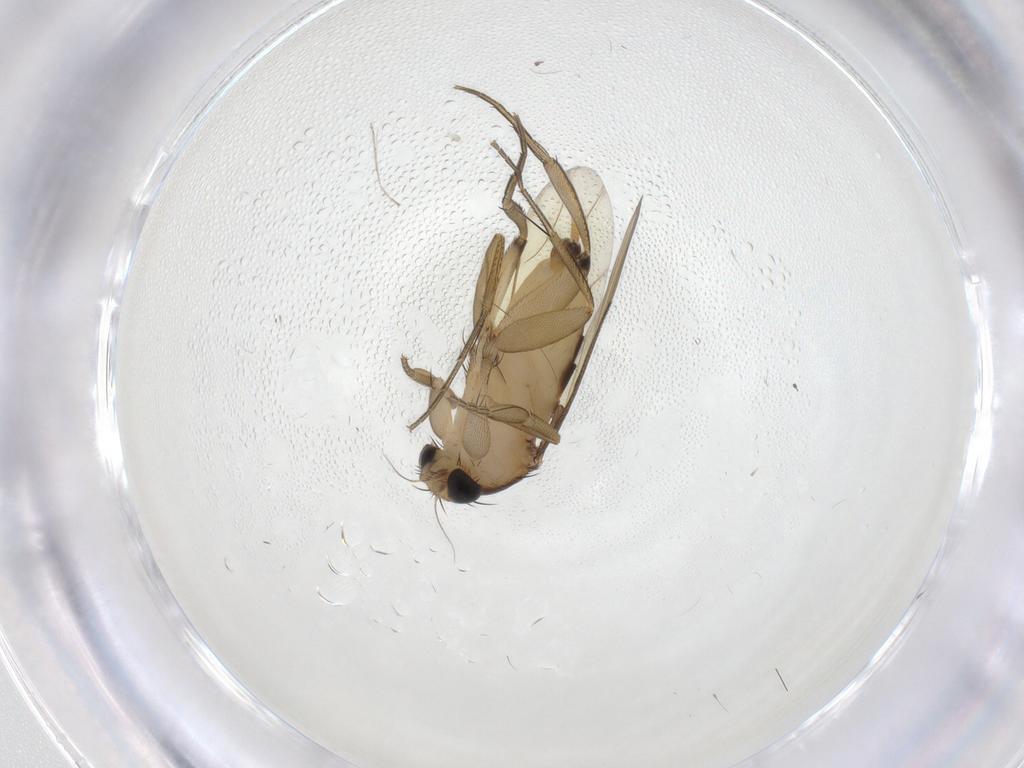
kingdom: Animalia
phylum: Arthropoda
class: Insecta
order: Diptera
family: Phoridae
